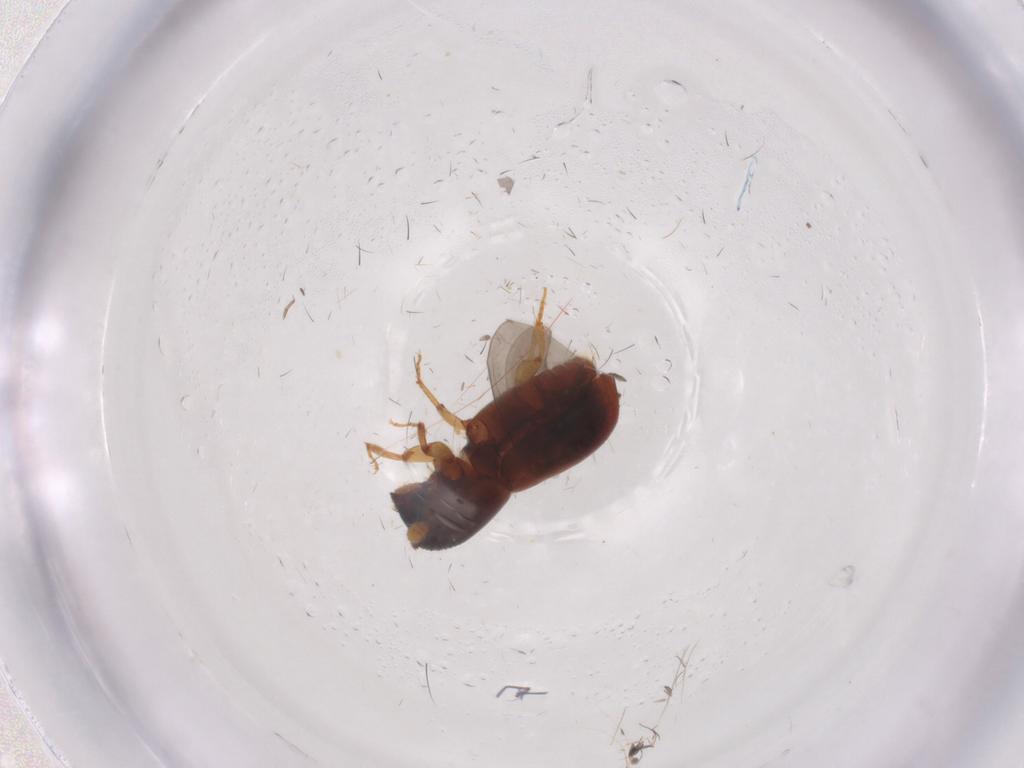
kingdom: Animalia
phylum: Arthropoda
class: Insecta
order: Coleoptera
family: Curculionidae
